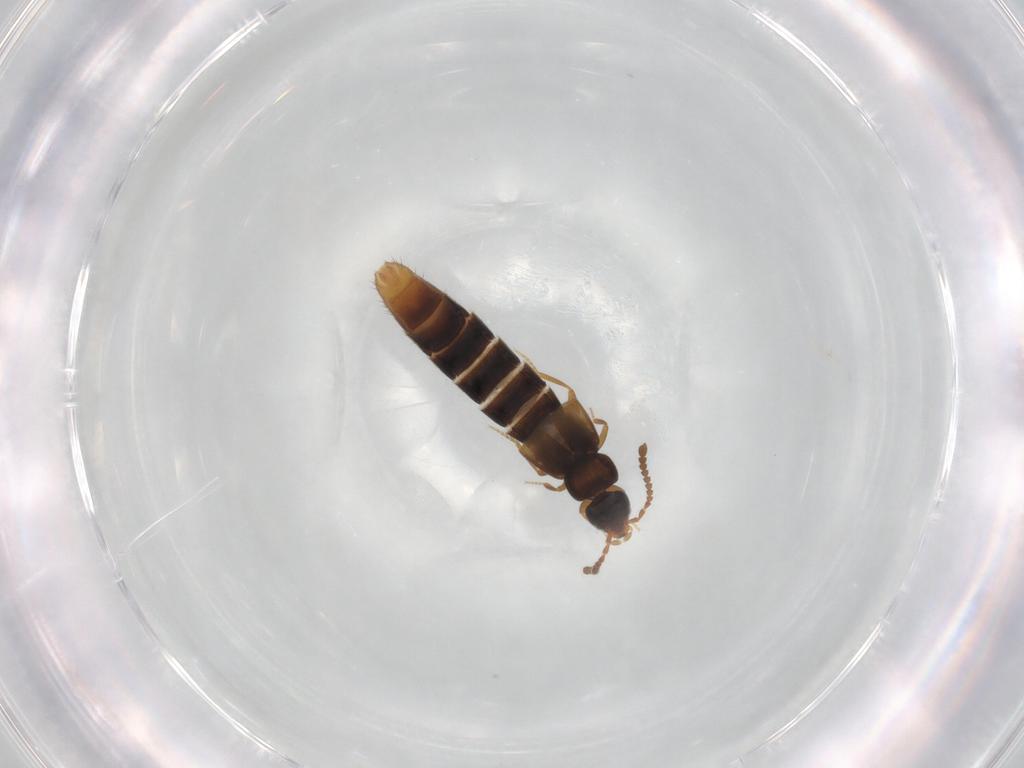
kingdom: Animalia
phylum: Arthropoda
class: Insecta
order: Coleoptera
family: Staphylinidae
